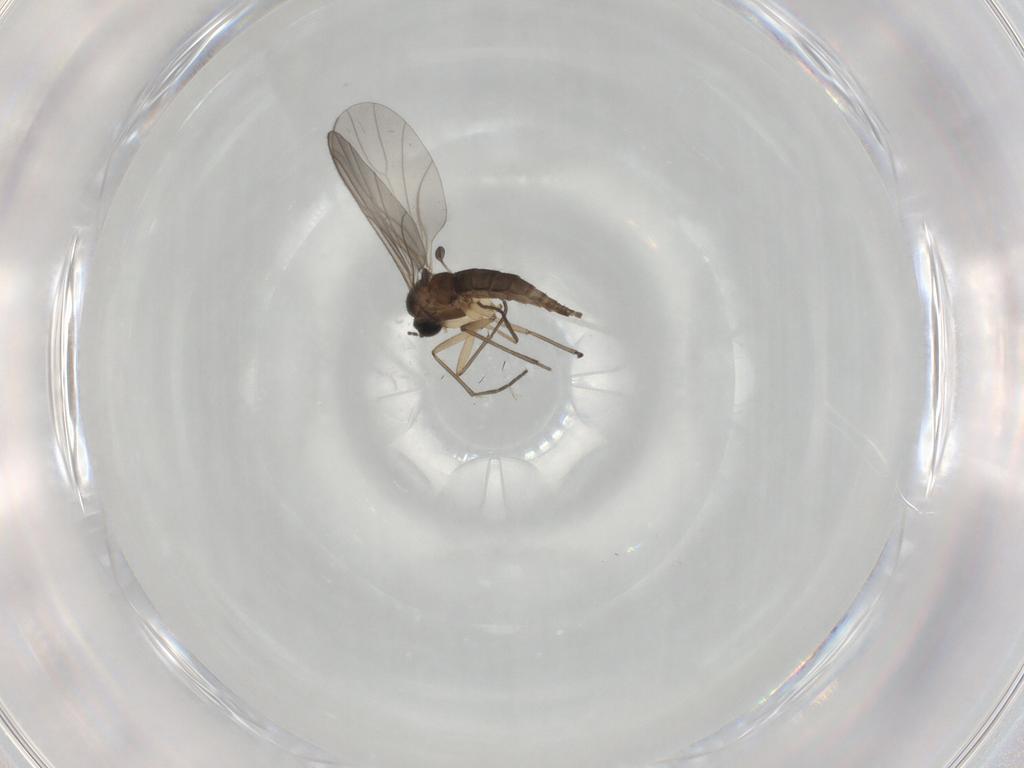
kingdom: Animalia
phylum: Arthropoda
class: Insecta
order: Diptera
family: Sciaridae
